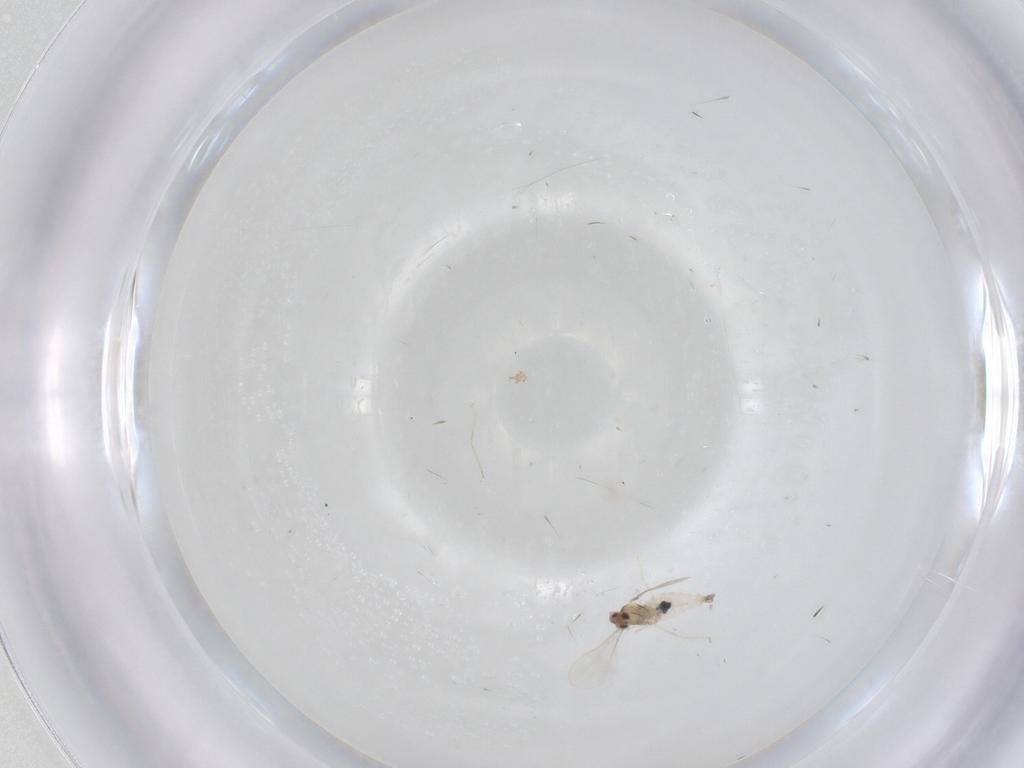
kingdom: Animalia
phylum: Arthropoda
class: Insecta
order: Diptera
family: Cecidomyiidae
